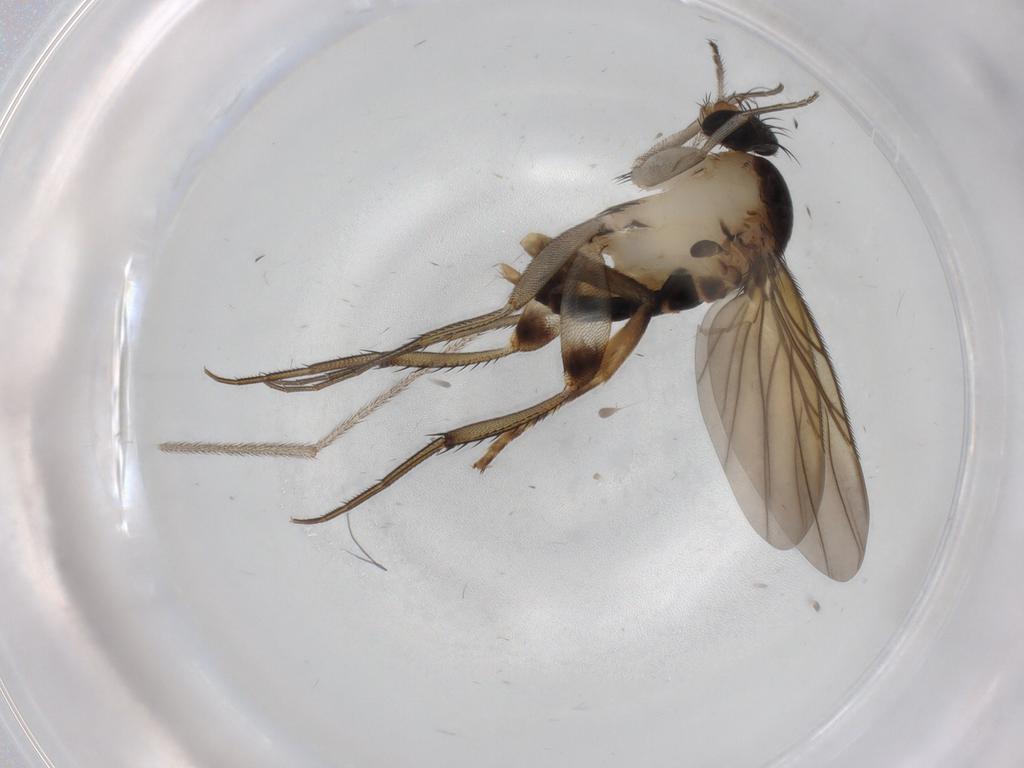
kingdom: Animalia
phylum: Arthropoda
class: Insecta
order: Diptera
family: Phoridae
